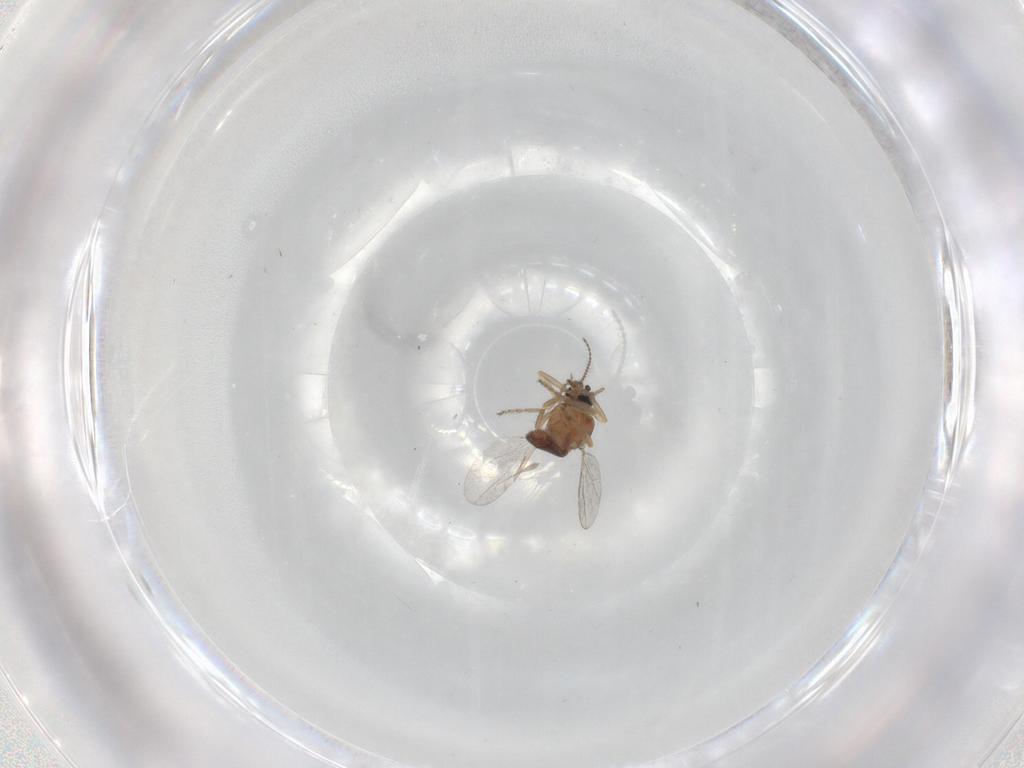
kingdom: Animalia
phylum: Arthropoda
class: Insecta
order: Diptera
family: Ceratopogonidae
